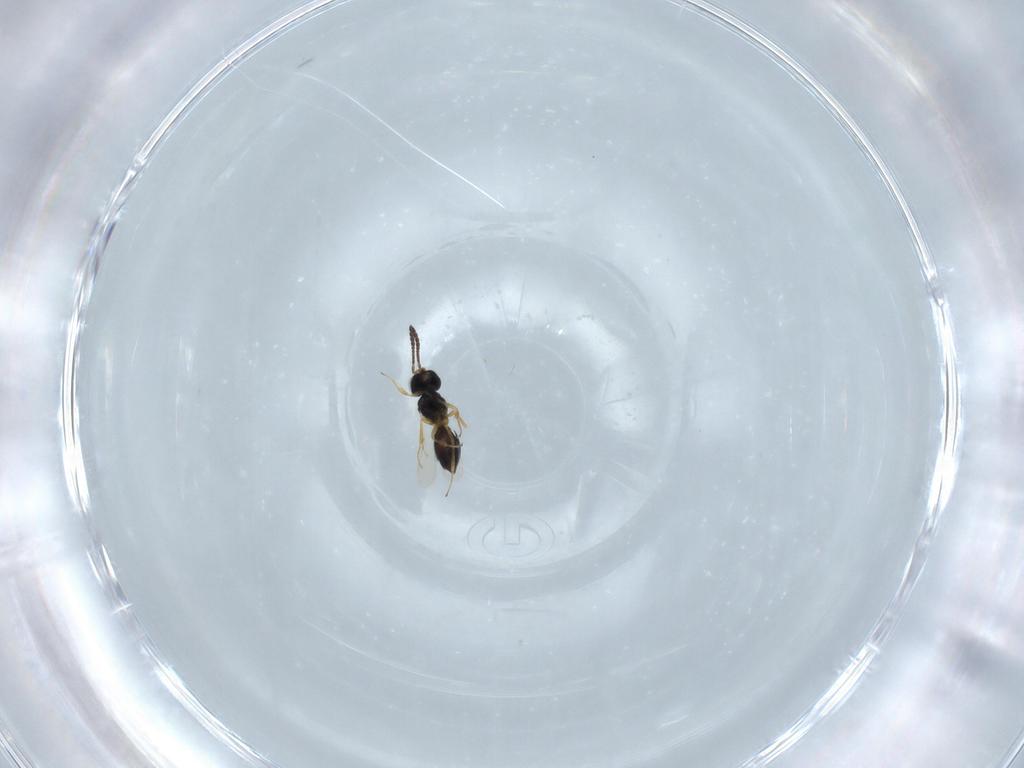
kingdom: Animalia
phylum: Arthropoda
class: Insecta
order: Hymenoptera
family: Scelionidae
